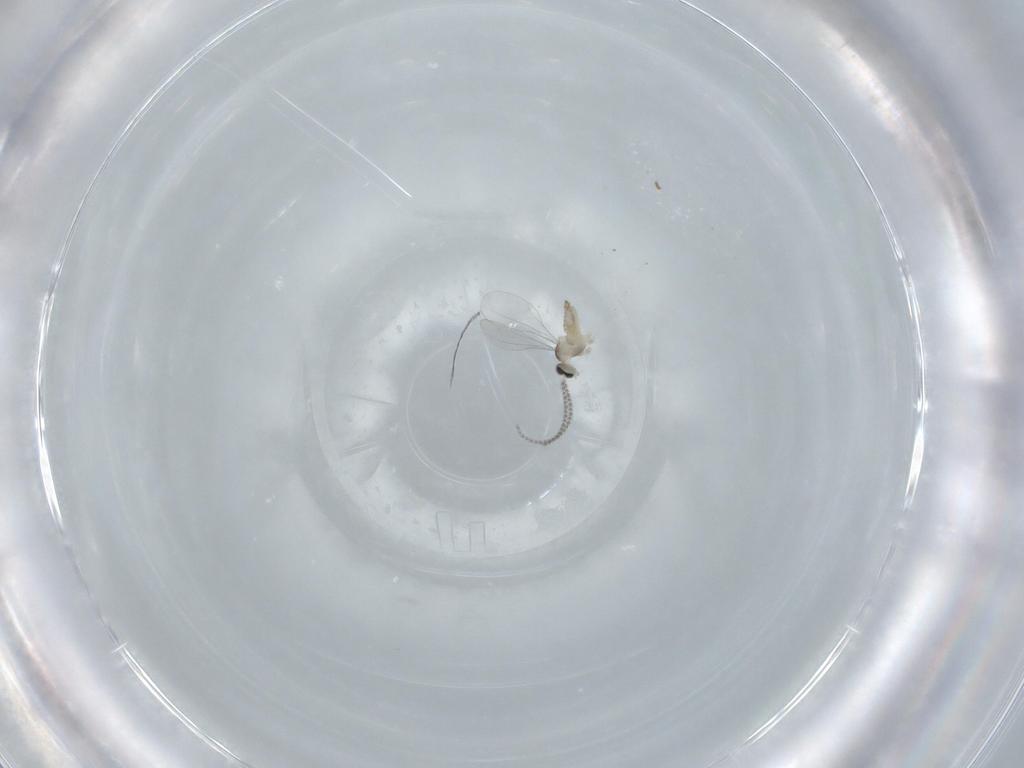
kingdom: Animalia
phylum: Arthropoda
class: Insecta
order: Diptera
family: Cecidomyiidae
